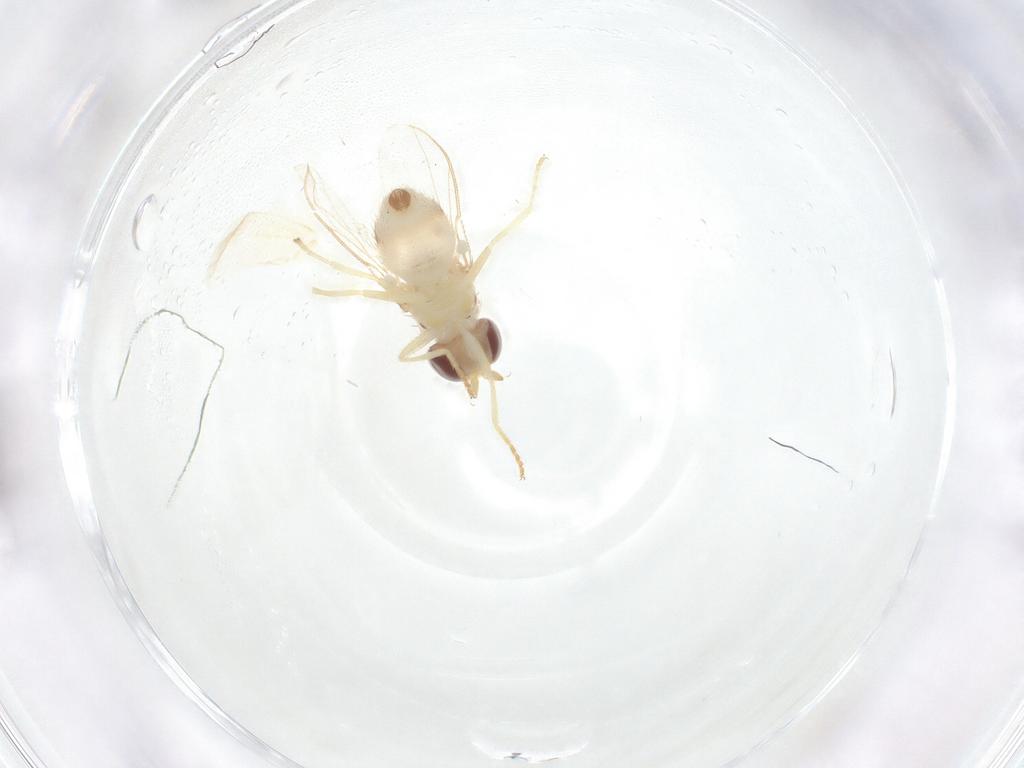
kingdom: Animalia
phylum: Arthropoda
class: Insecta
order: Diptera
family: Chloropidae
